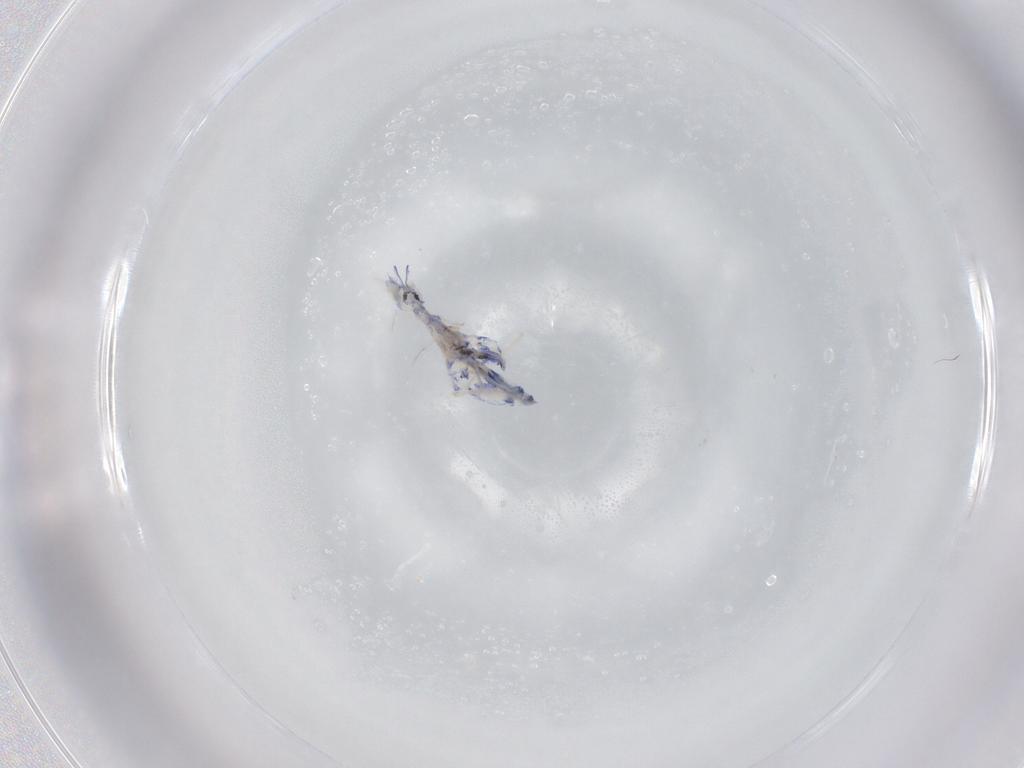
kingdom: Animalia
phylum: Arthropoda
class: Collembola
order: Entomobryomorpha
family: Entomobryidae
